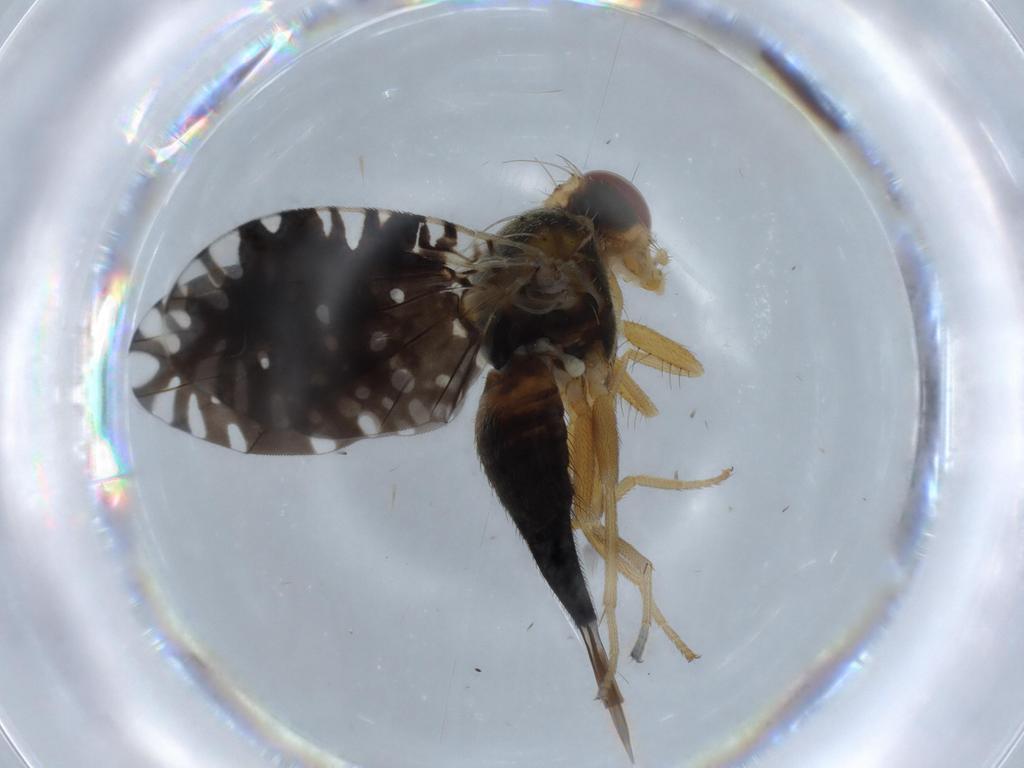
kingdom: Animalia
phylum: Arthropoda
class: Insecta
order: Diptera
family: Tephritidae
